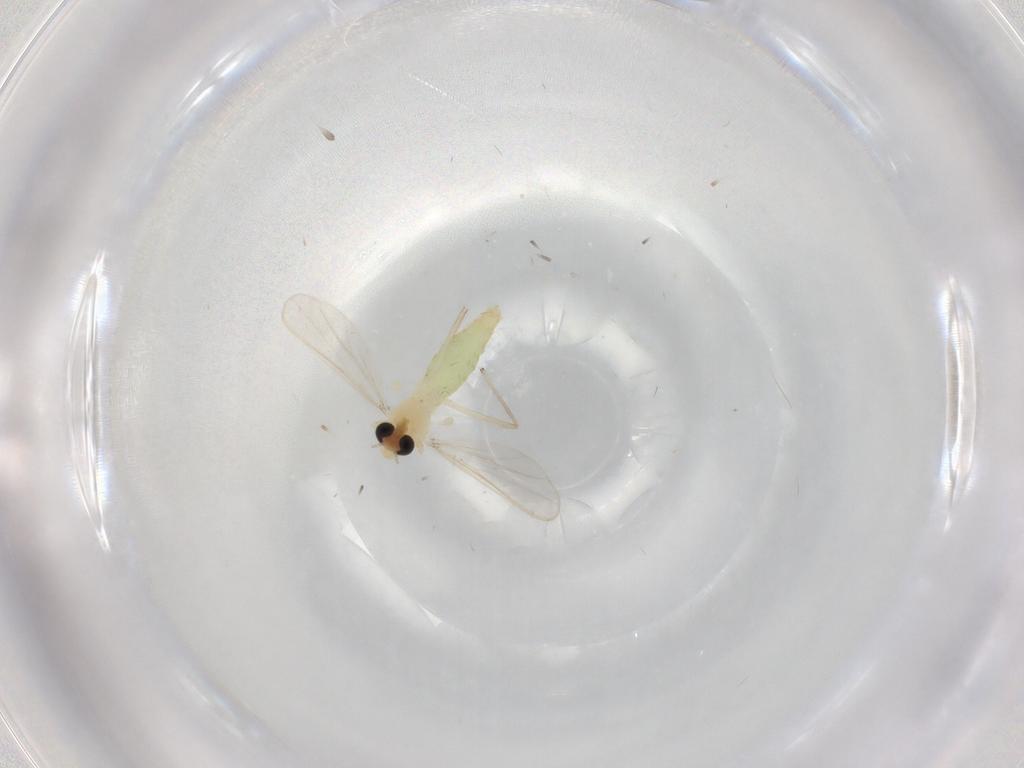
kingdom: Animalia
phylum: Arthropoda
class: Insecta
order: Diptera
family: Chironomidae
